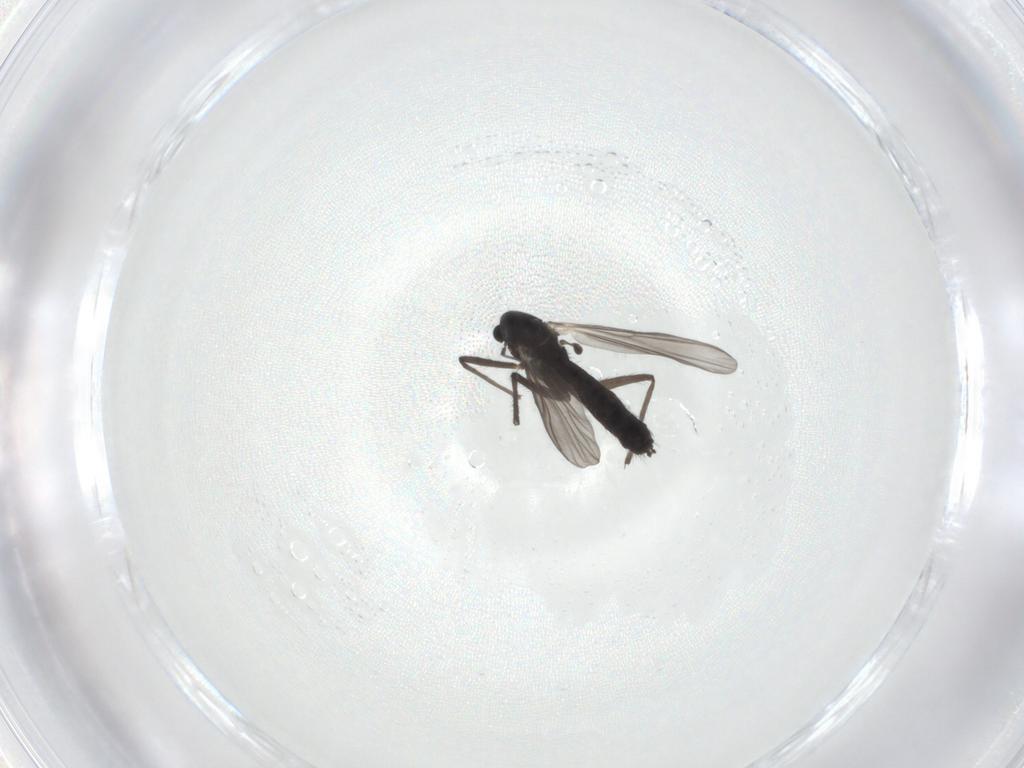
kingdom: Animalia
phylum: Arthropoda
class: Insecta
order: Diptera
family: Chironomidae
